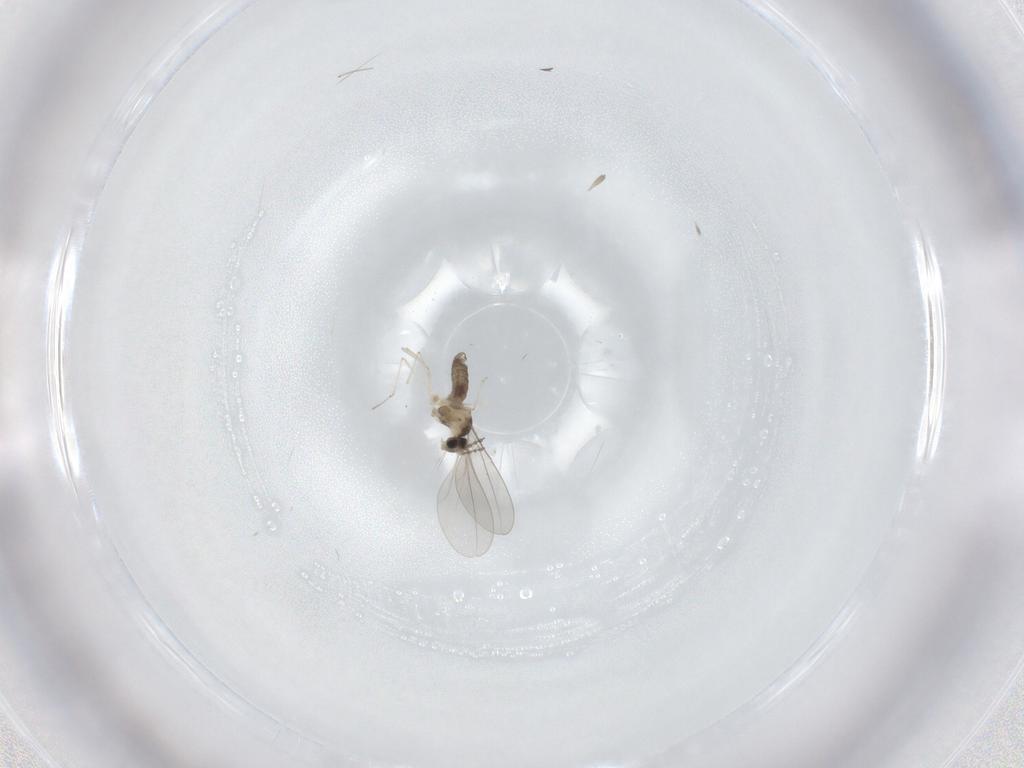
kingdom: Animalia
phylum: Arthropoda
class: Insecta
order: Diptera
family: Cecidomyiidae
